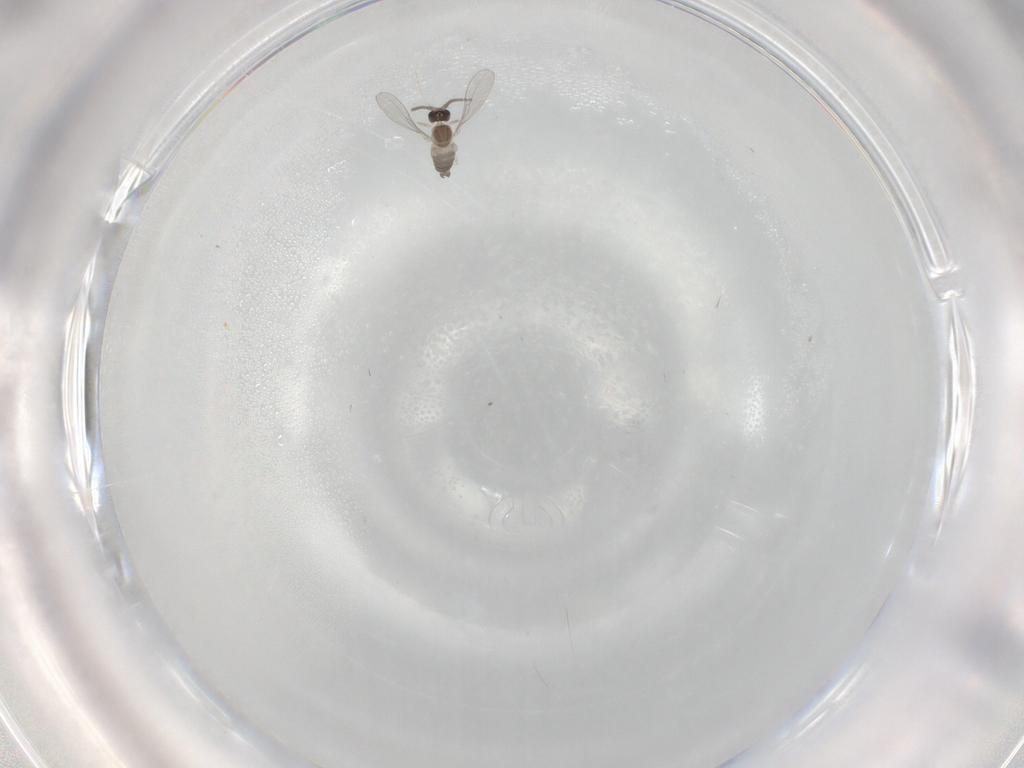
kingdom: Animalia
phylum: Arthropoda
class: Insecta
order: Diptera
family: Cecidomyiidae
